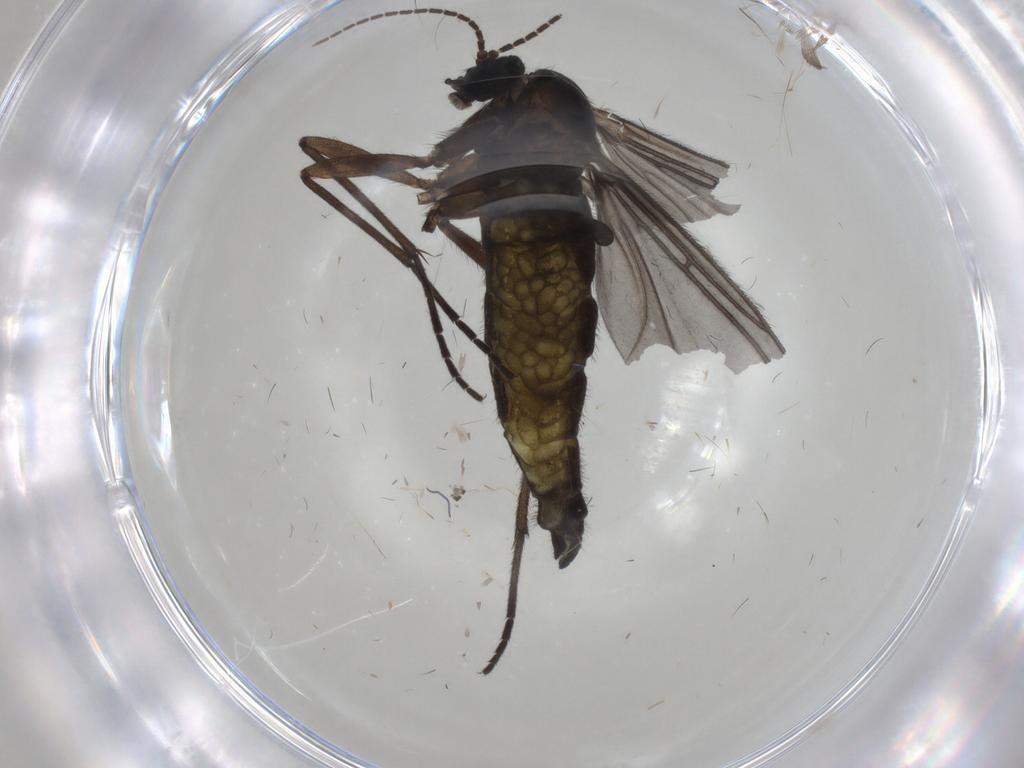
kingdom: Animalia
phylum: Arthropoda
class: Insecta
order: Diptera
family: Sciaridae
